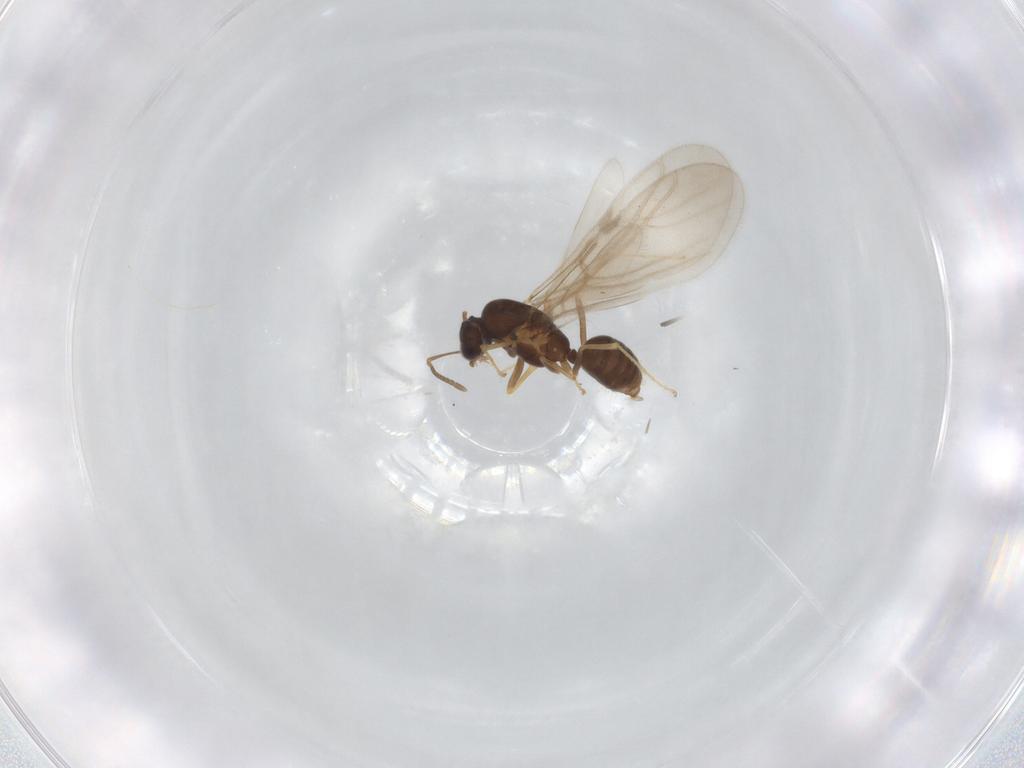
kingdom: Animalia
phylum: Arthropoda
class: Insecta
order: Hymenoptera
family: Formicidae
